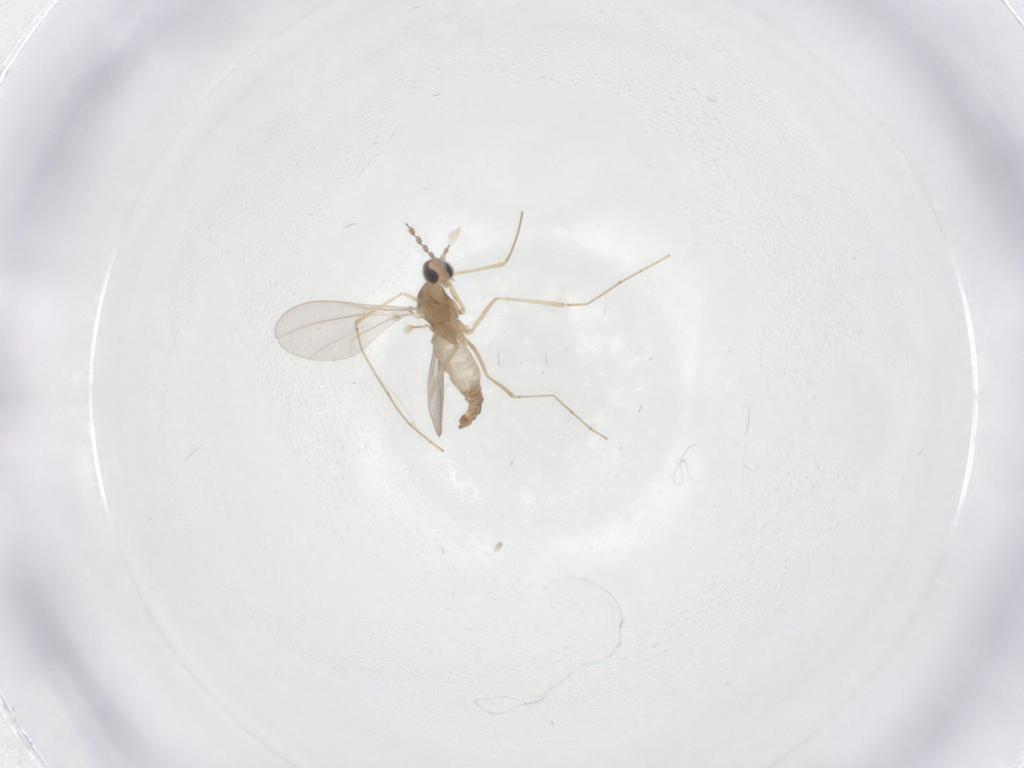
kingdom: Animalia
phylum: Arthropoda
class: Insecta
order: Diptera
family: Cecidomyiidae
